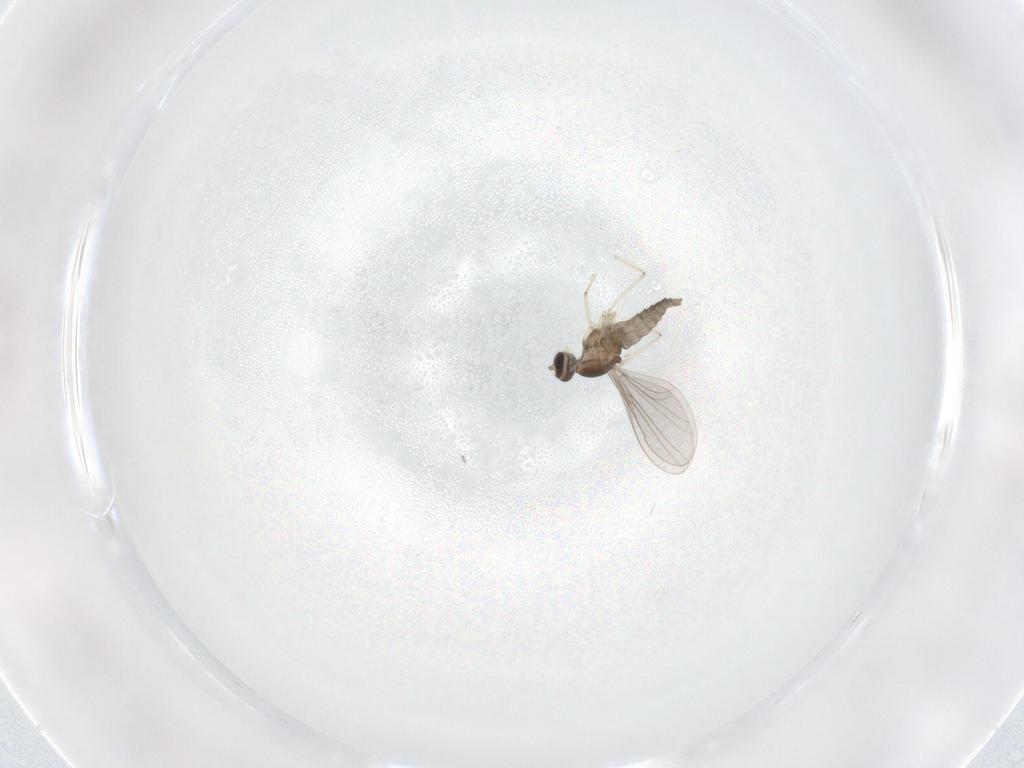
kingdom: Animalia
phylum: Arthropoda
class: Insecta
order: Diptera
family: Cecidomyiidae
